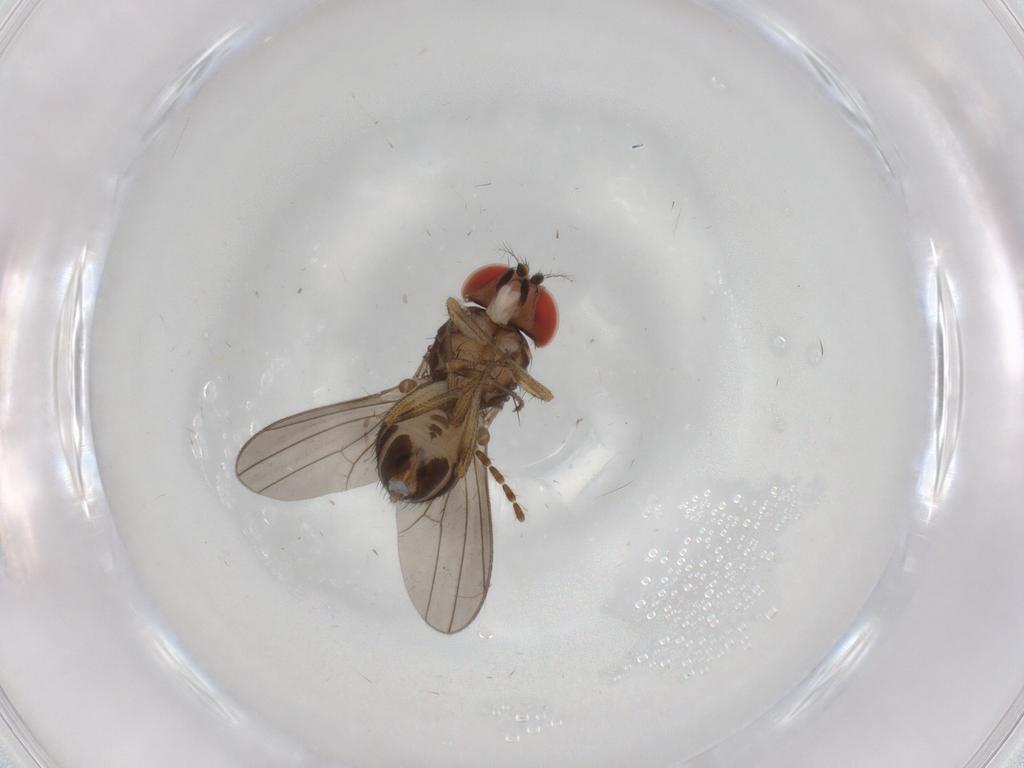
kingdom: Animalia
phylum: Arthropoda
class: Insecta
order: Diptera
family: Drosophilidae
